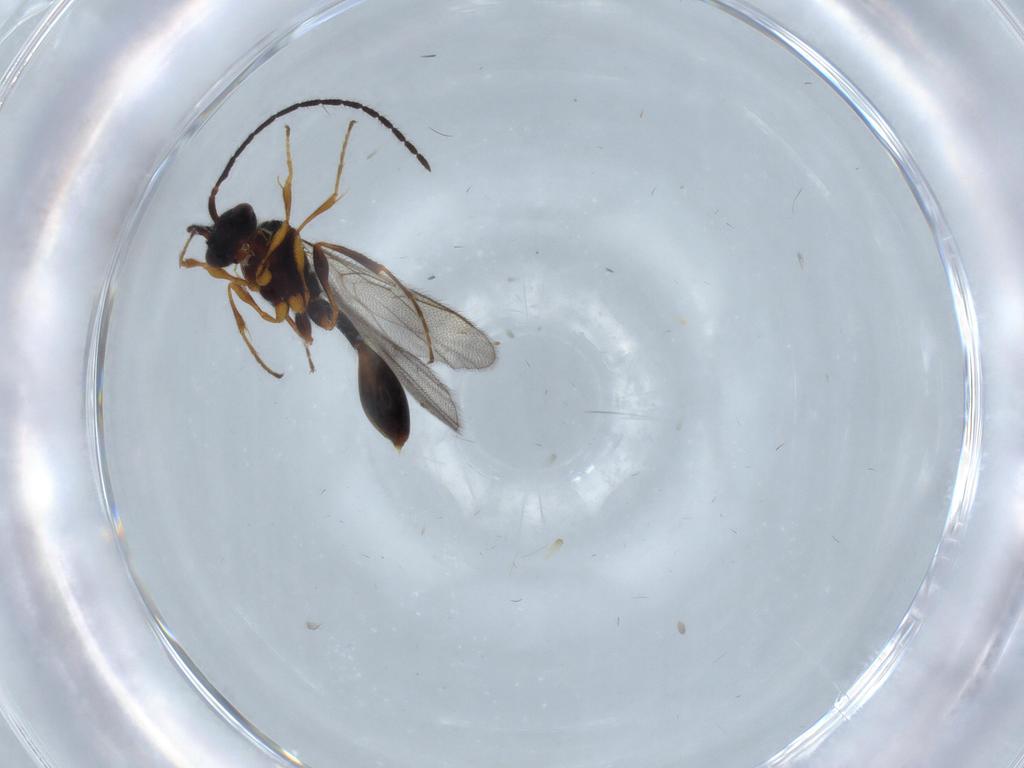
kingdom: Animalia
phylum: Arthropoda
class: Insecta
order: Hymenoptera
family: Diapriidae
